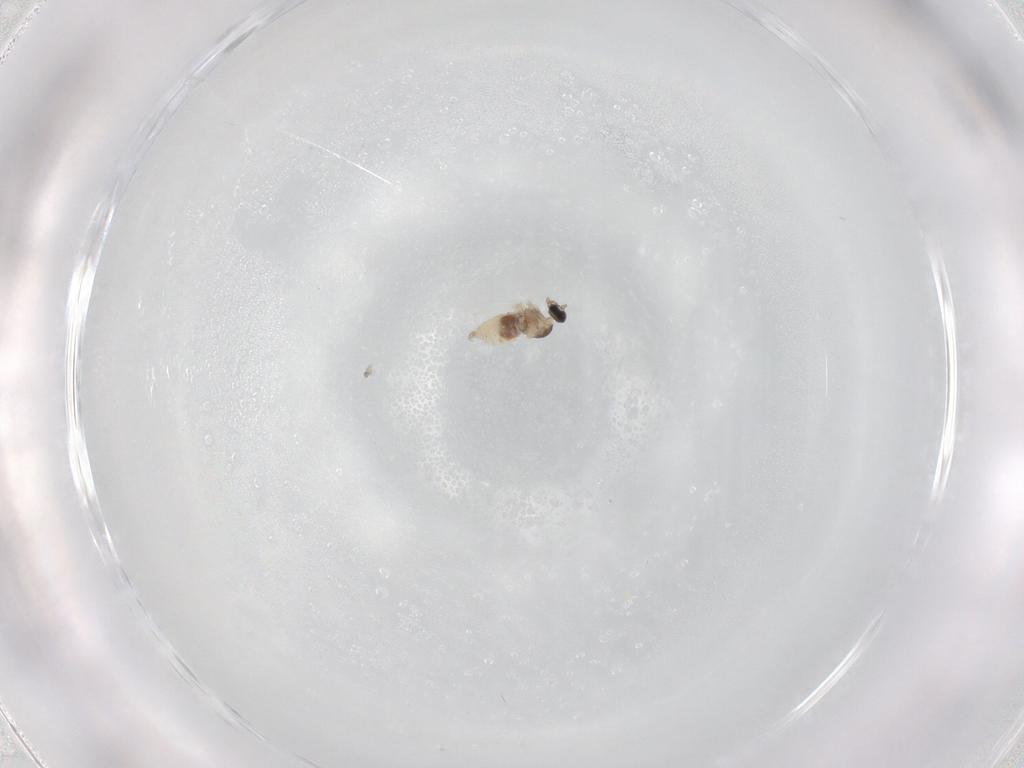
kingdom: Animalia
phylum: Arthropoda
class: Insecta
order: Diptera
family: Cecidomyiidae
